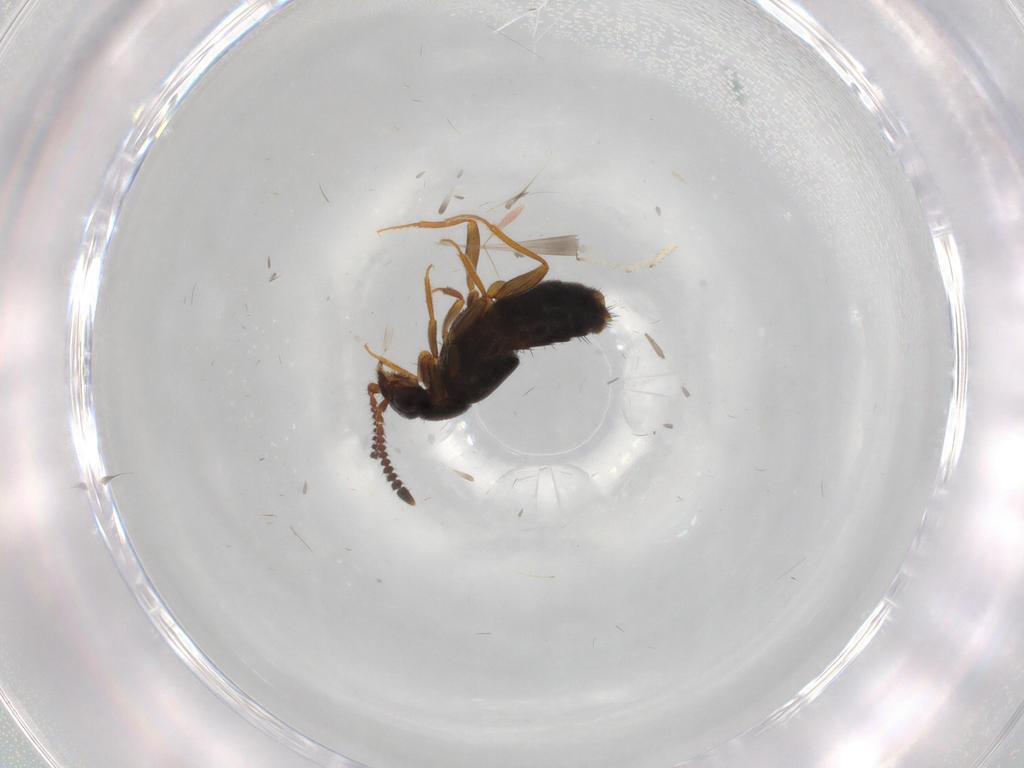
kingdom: Animalia
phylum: Arthropoda
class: Insecta
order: Coleoptera
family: Staphylinidae
